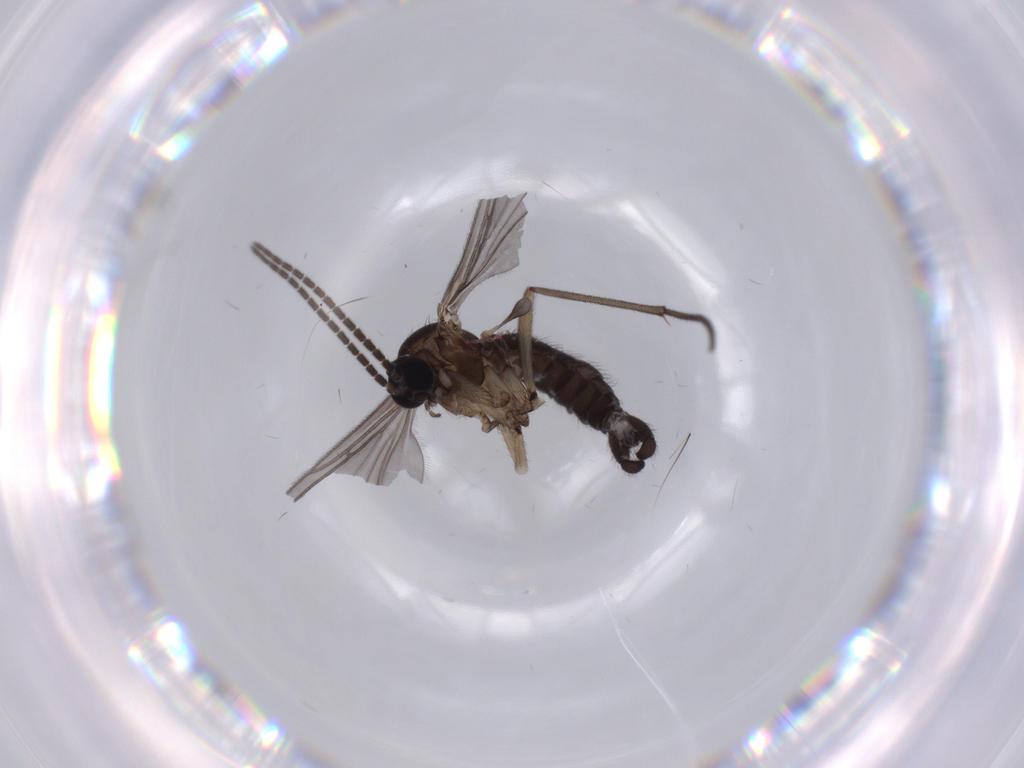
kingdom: Animalia
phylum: Arthropoda
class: Insecta
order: Diptera
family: Sciaridae
